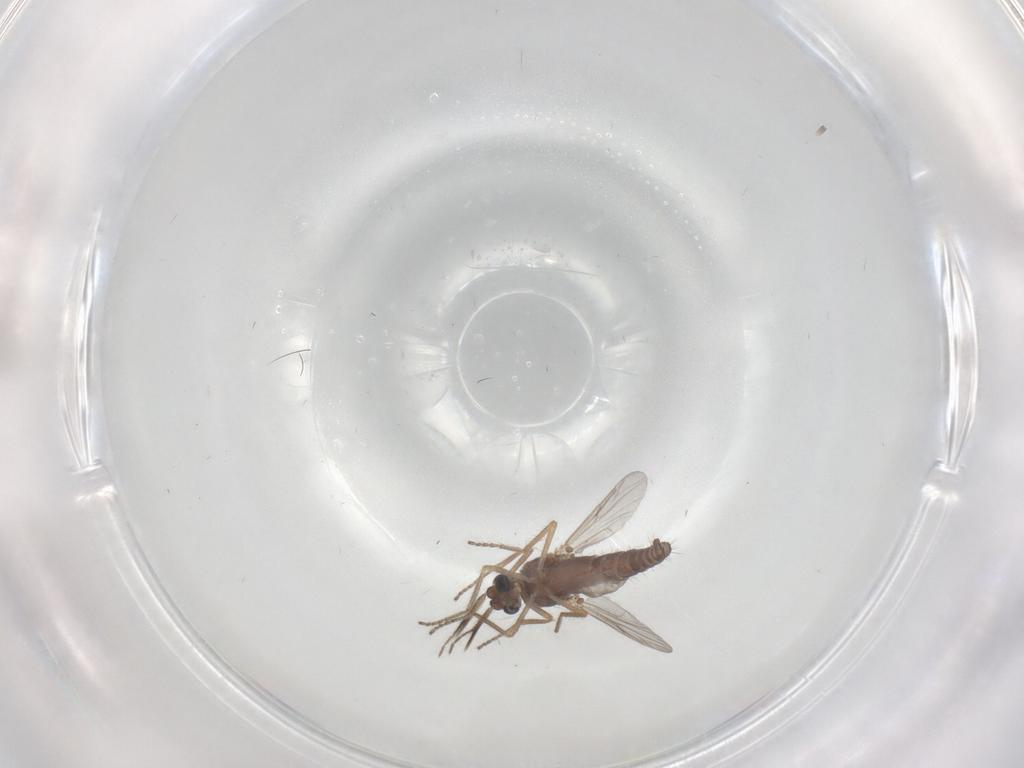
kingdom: Animalia
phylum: Arthropoda
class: Insecta
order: Diptera
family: Ceratopogonidae
